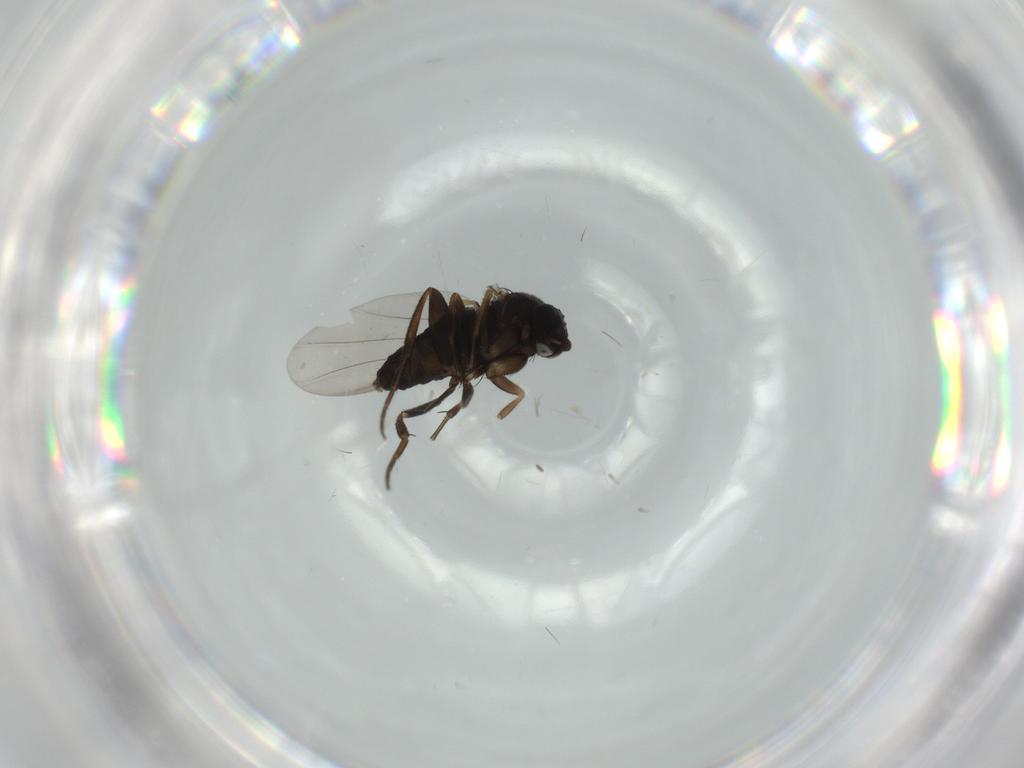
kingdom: Animalia
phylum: Arthropoda
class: Insecta
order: Diptera
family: Phoridae
